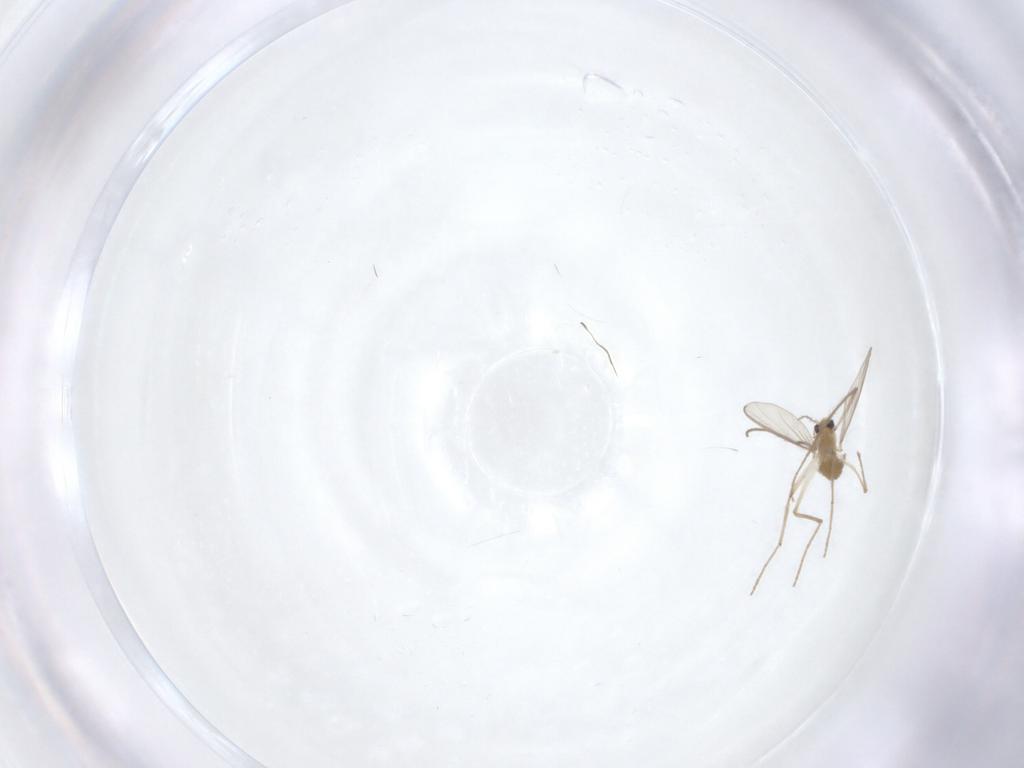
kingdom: Animalia
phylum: Arthropoda
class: Insecta
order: Diptera
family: Chironomidae
